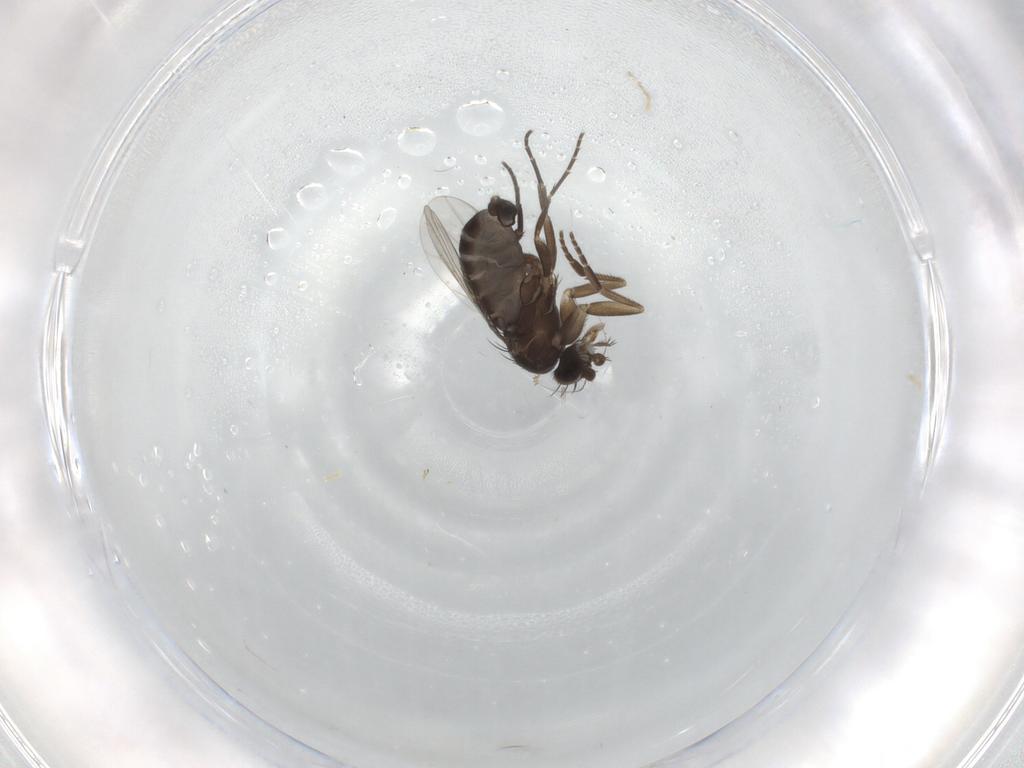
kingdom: Animalia
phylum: Arthropoda
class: Insecta
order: Diptera
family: Phoridae
